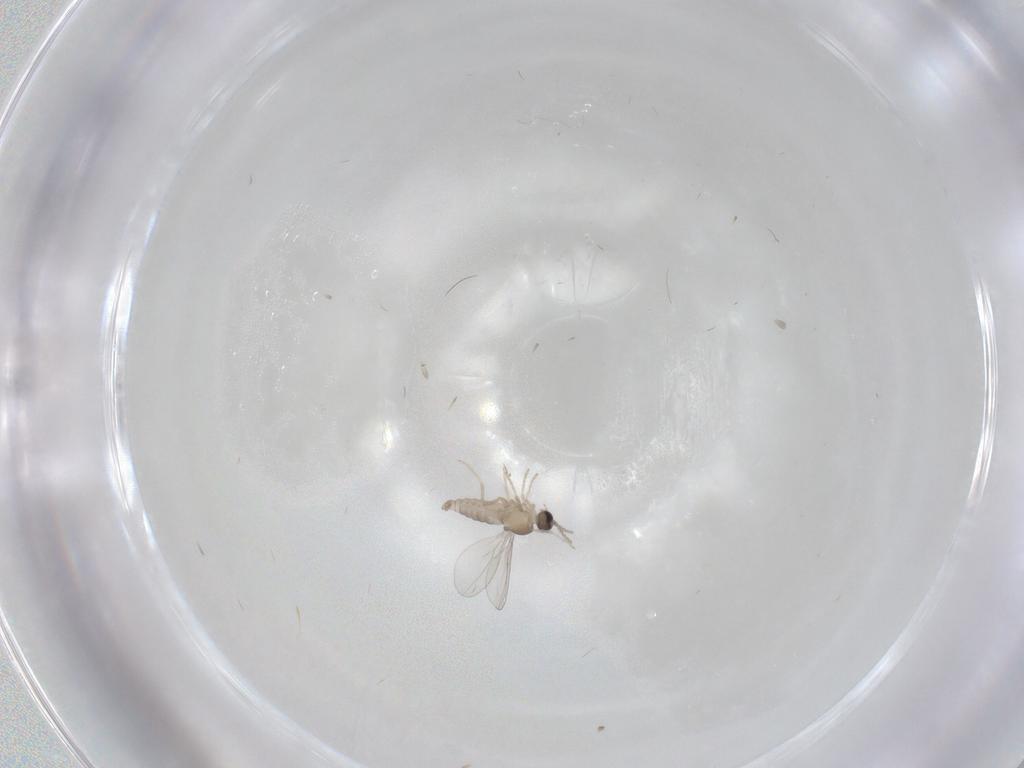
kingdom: Animalia
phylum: Arthropoda
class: Insecta
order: Diptera
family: Cecidomyiidae
